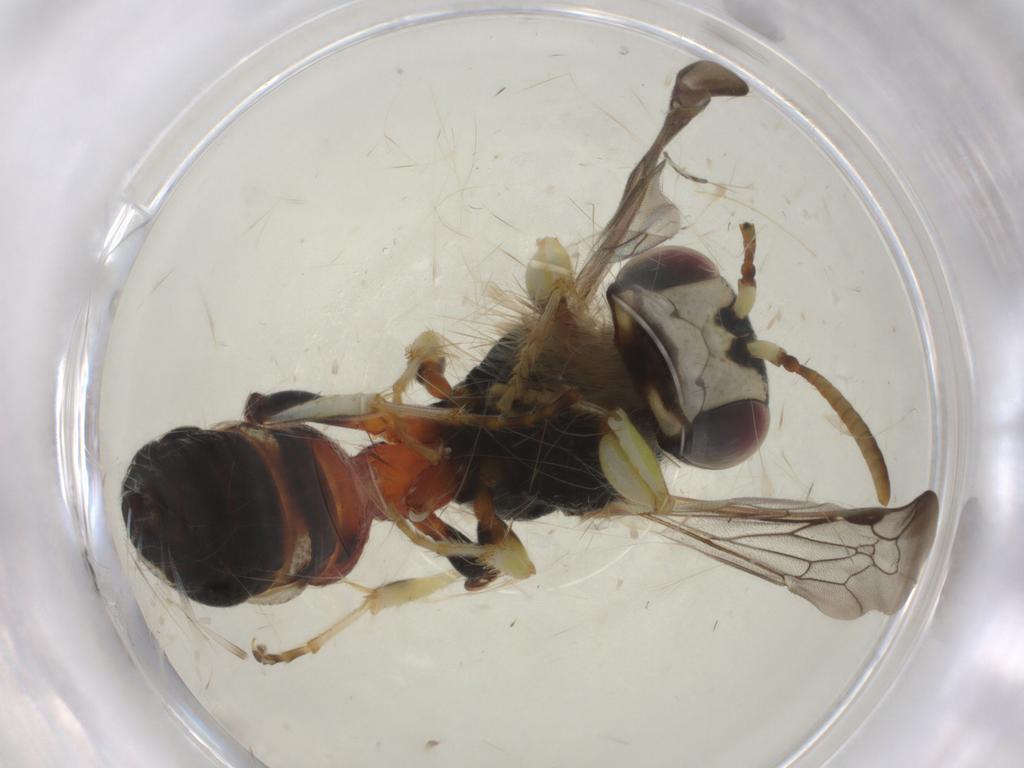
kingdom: Animalia
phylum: Arthropoda
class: Insecta
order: Hymenoptera
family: Crabronidae
